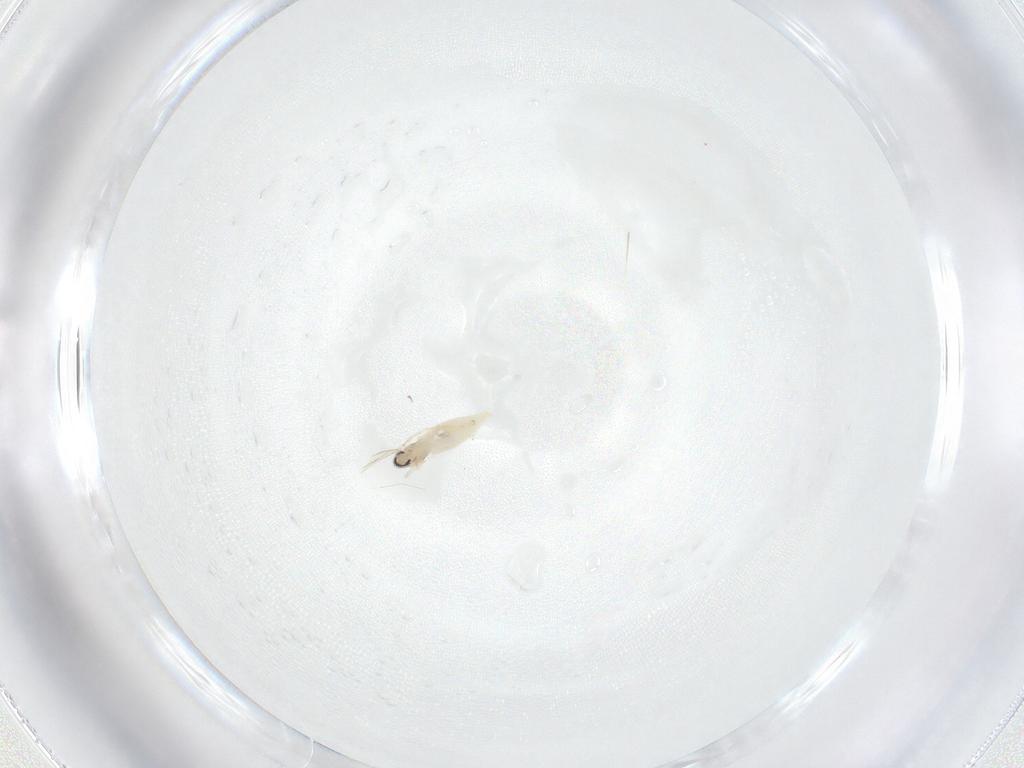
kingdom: Animalia
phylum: Arthropoda
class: Insecta
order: Diptera
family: Cecidomyiidae
